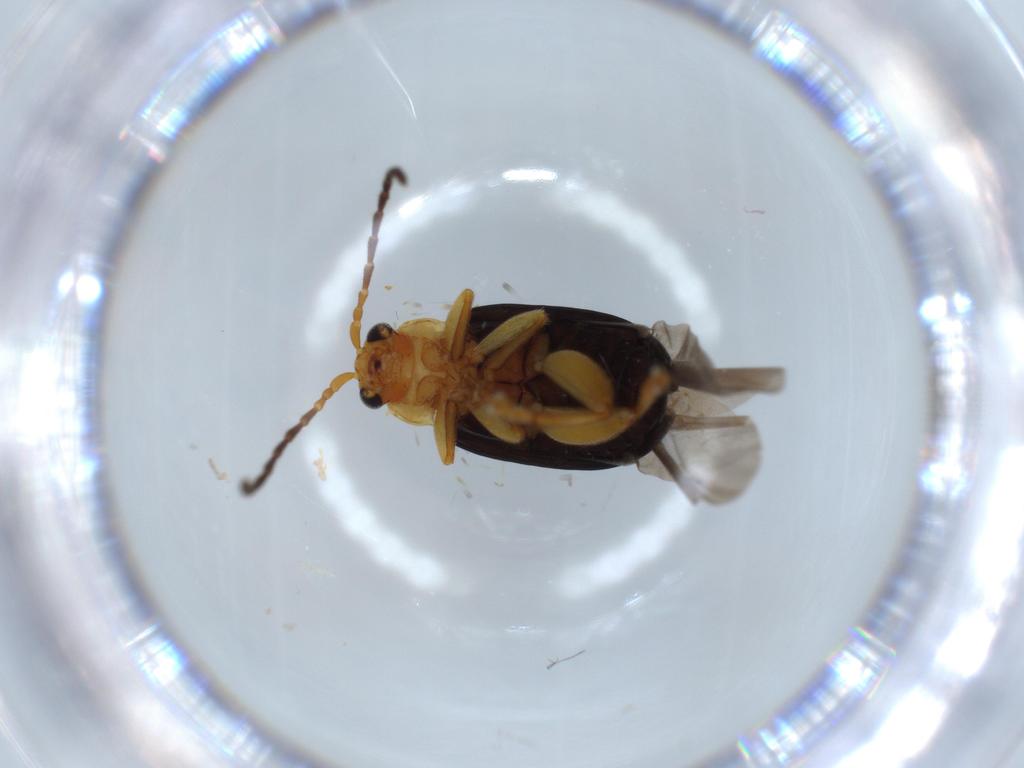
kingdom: Animalia
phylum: Arthropoda
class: Insecta
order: Coleoptera
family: Chrysomelidae
